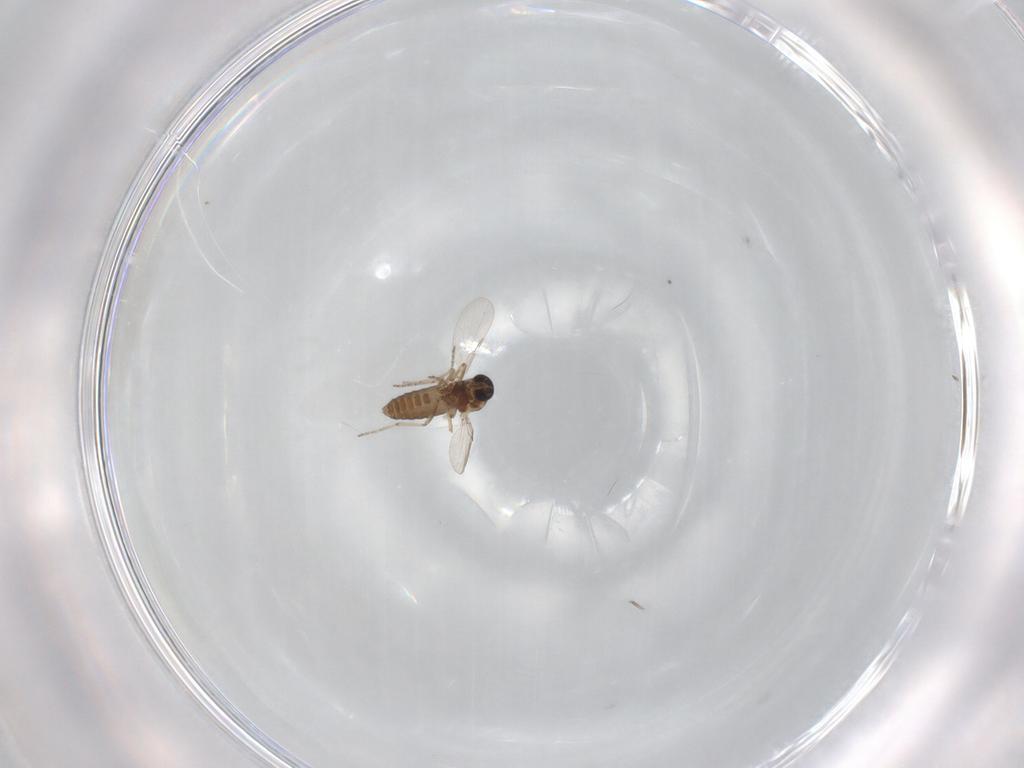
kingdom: Animalia
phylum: Arthropoda
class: Insecta
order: Diptera
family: Ceratopogonidae
